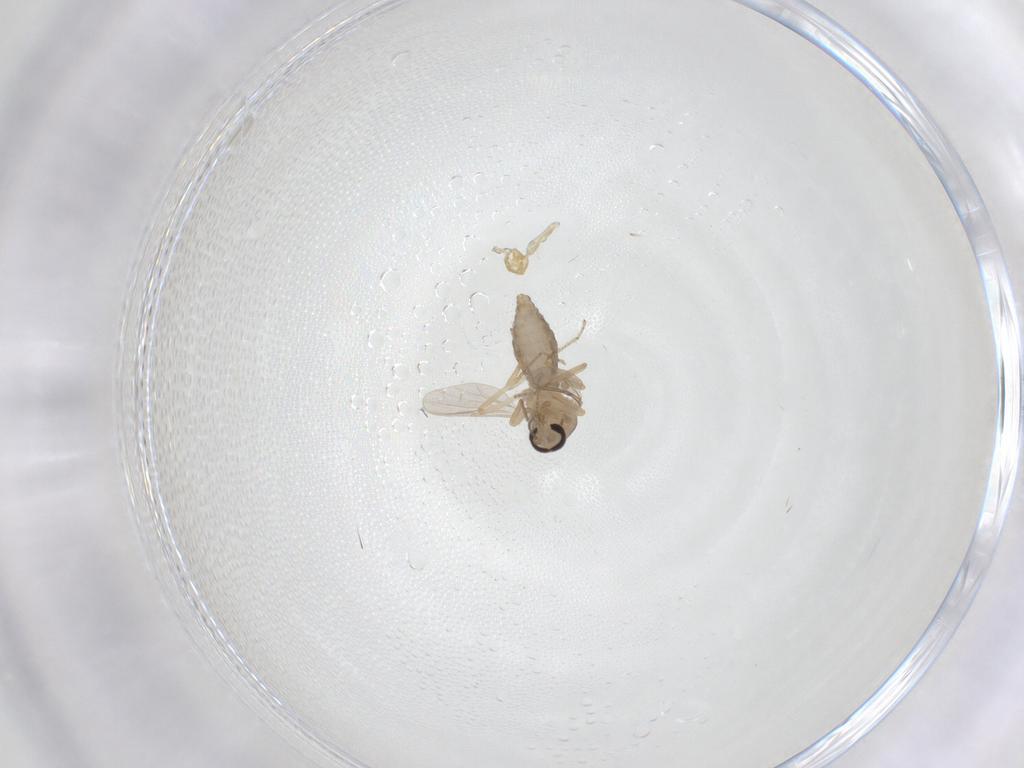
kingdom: Animalia
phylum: Arthropoda
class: Insecta
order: Diptera
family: Ceratopogonidae
